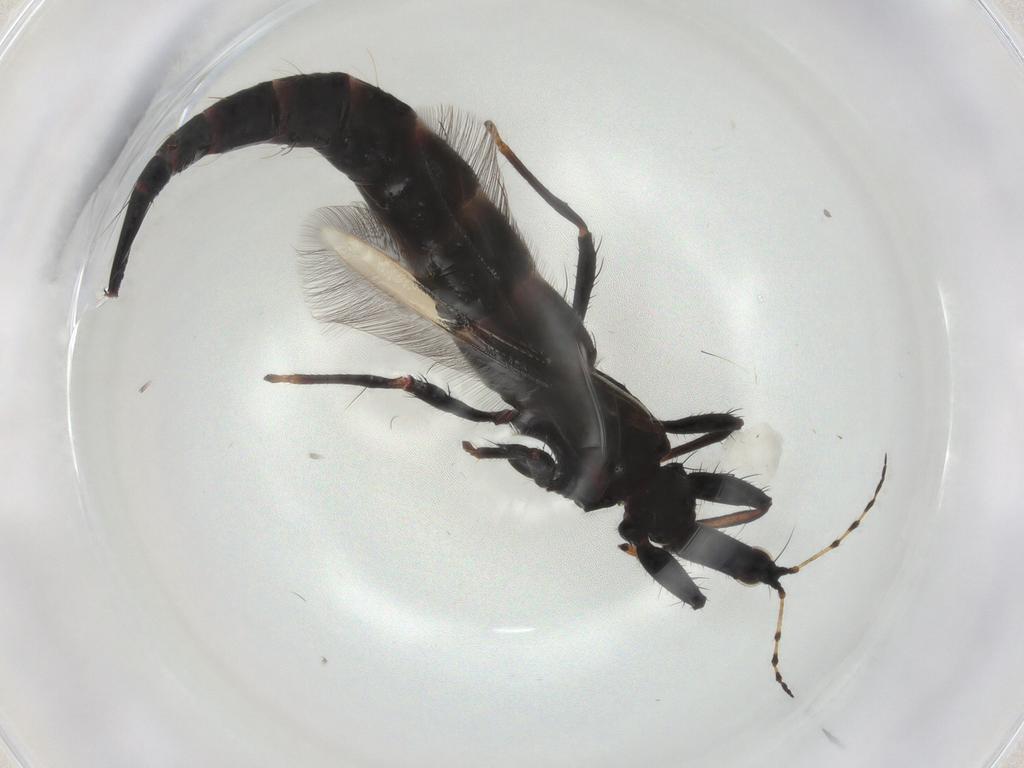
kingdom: Animalia
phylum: Arthropoda
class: Insecta
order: Thysanoptera
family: Phlaeothripidae
